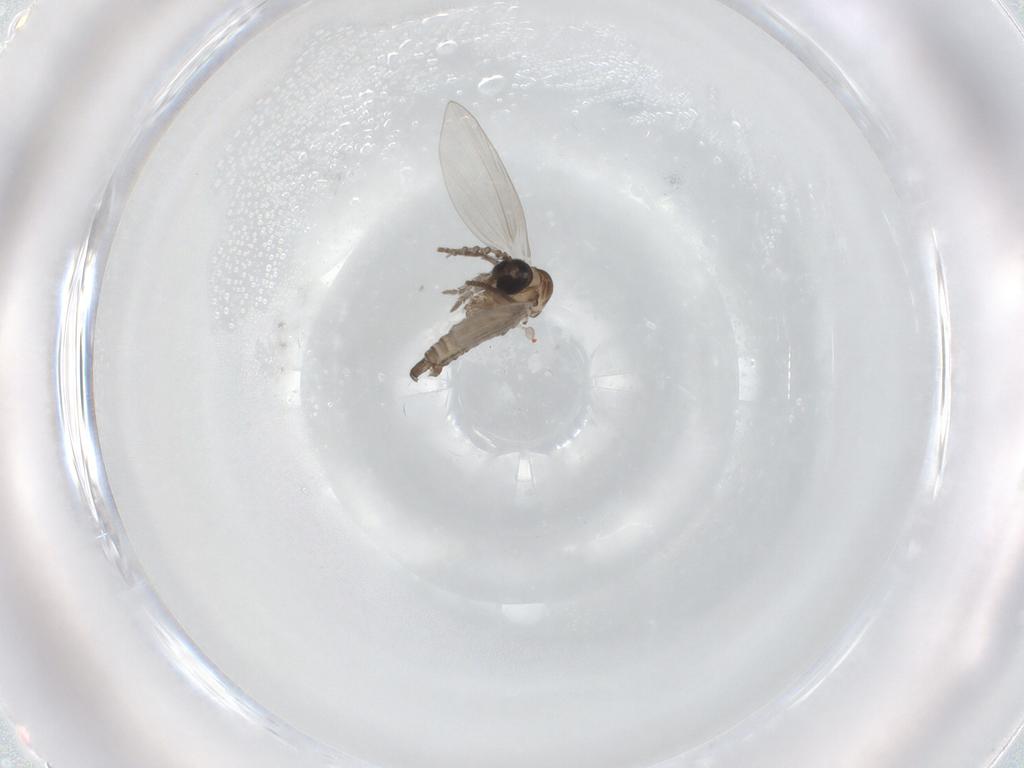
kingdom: Animalia
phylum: Arthropoda
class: Insecta
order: Diptera
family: Psychodidae
